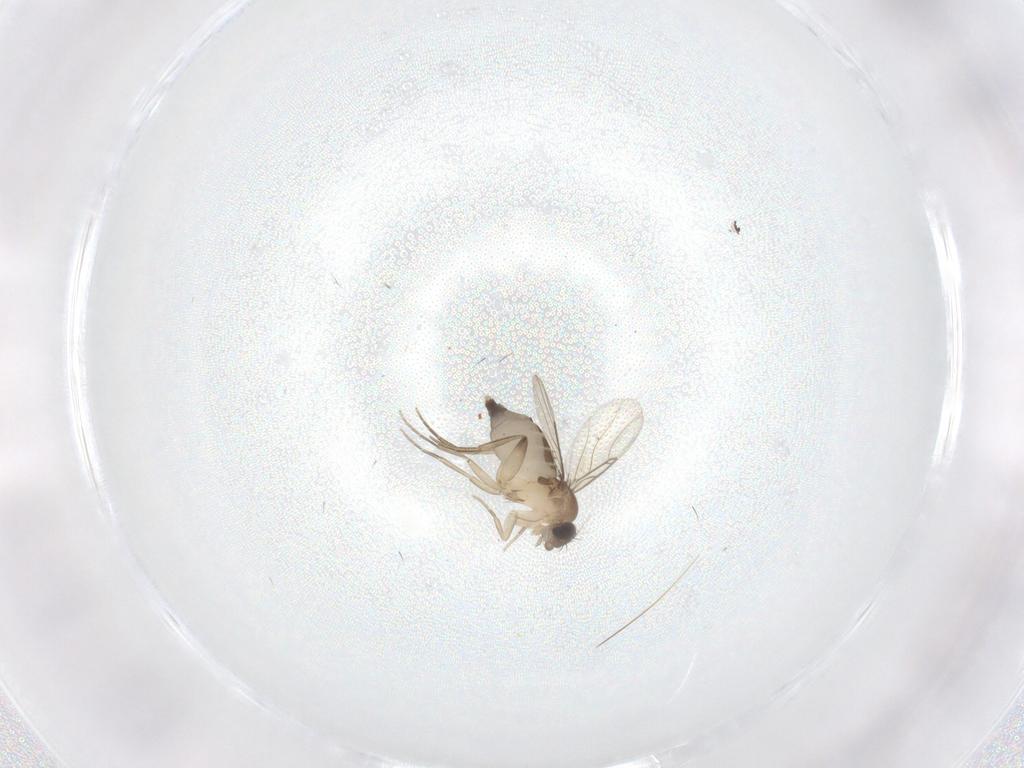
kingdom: Animalia
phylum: Arthropoda
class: Insecta
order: Diptera
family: Phoridae
